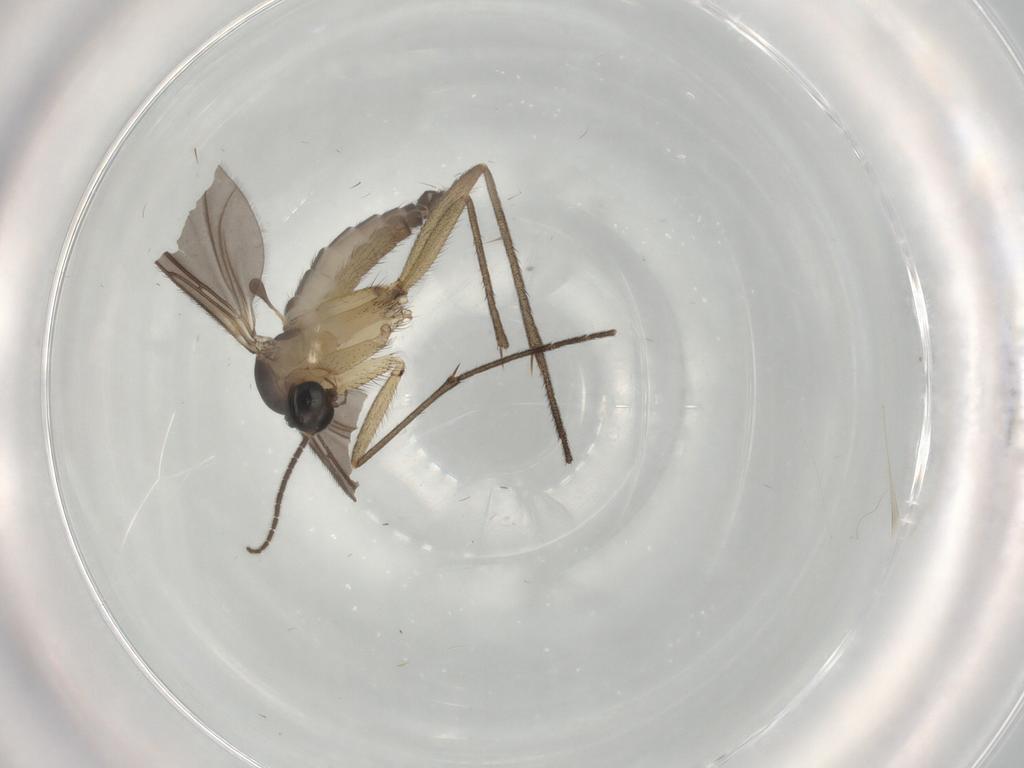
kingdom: Animalia
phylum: Arthropoda
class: Insecta
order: Diptera
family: Sciaridae
